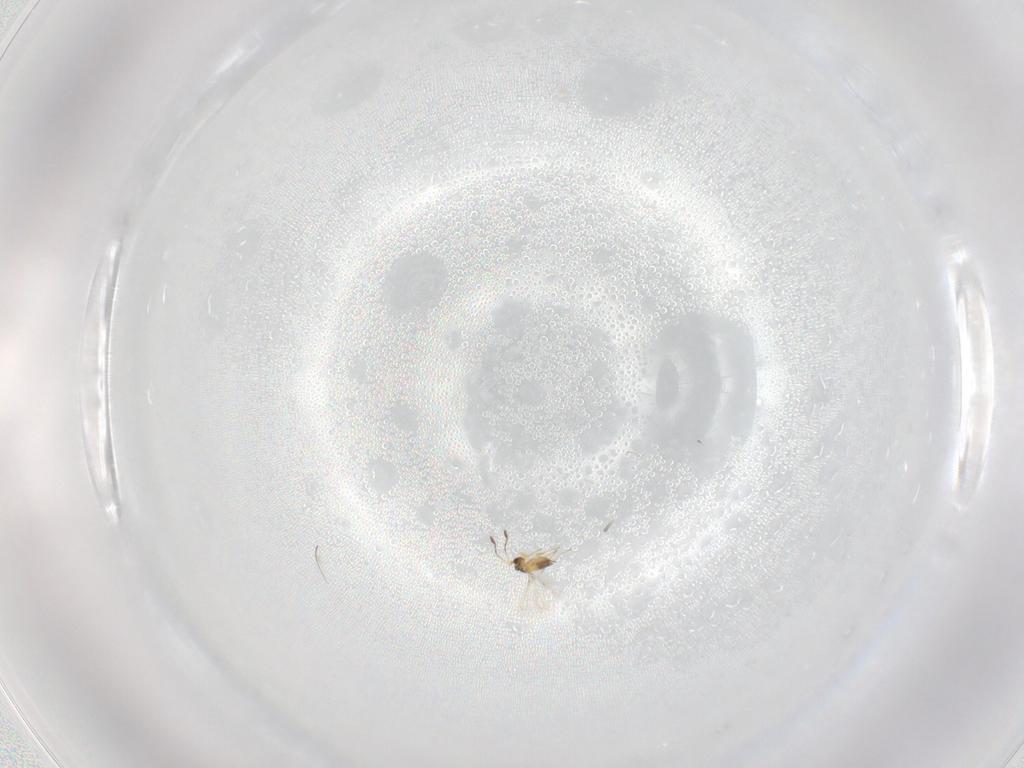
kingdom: Animalia
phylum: Arthropoda
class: Insecta
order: Hymenoptera
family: Mymaridae
